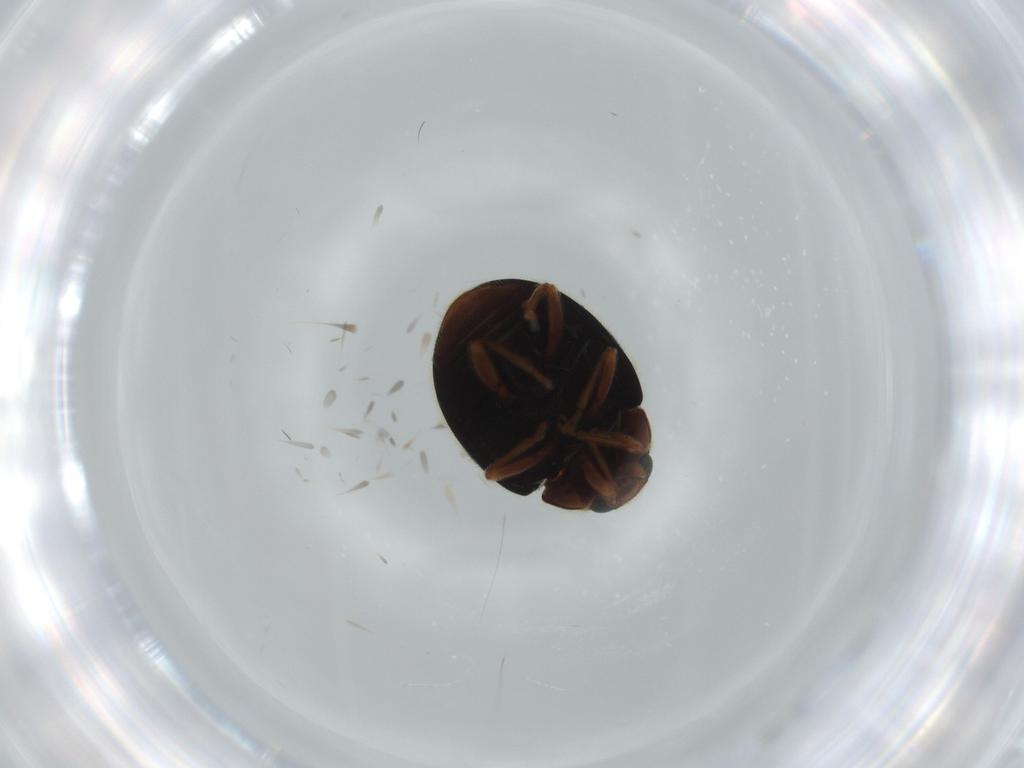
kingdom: Animalia
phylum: Arthropoda
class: Insecta
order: Coleoptera
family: Coccinellidae
